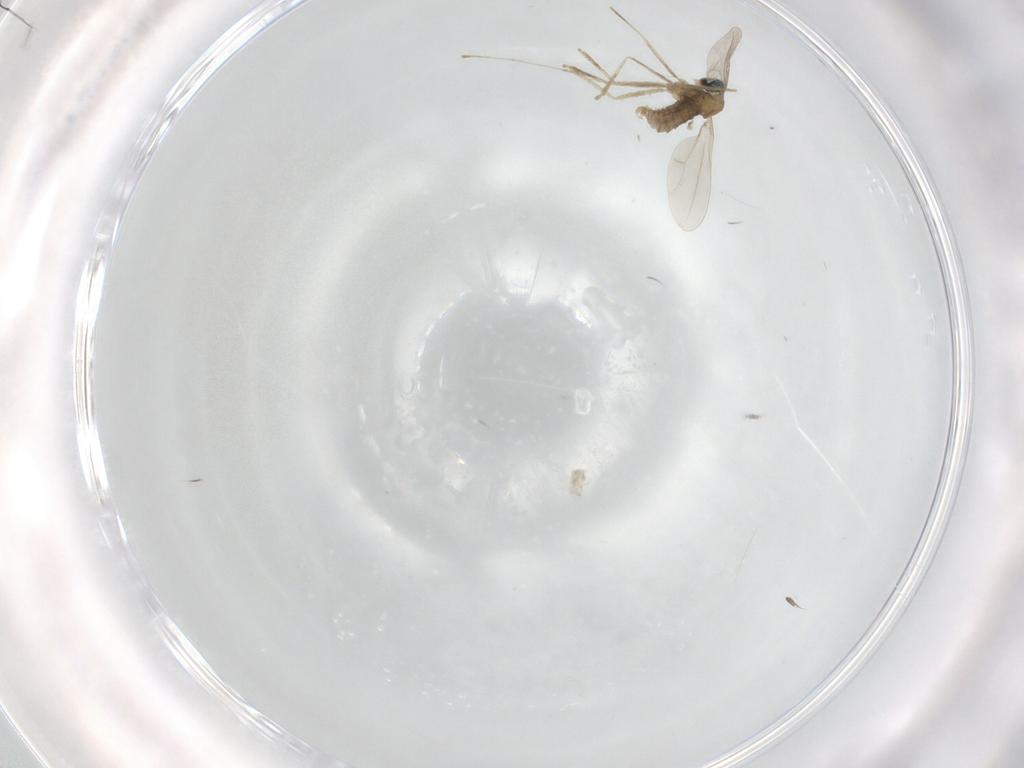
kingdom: Animalia
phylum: Arthropoda
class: Insecta
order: Diptera
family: Cecidomyiidae
